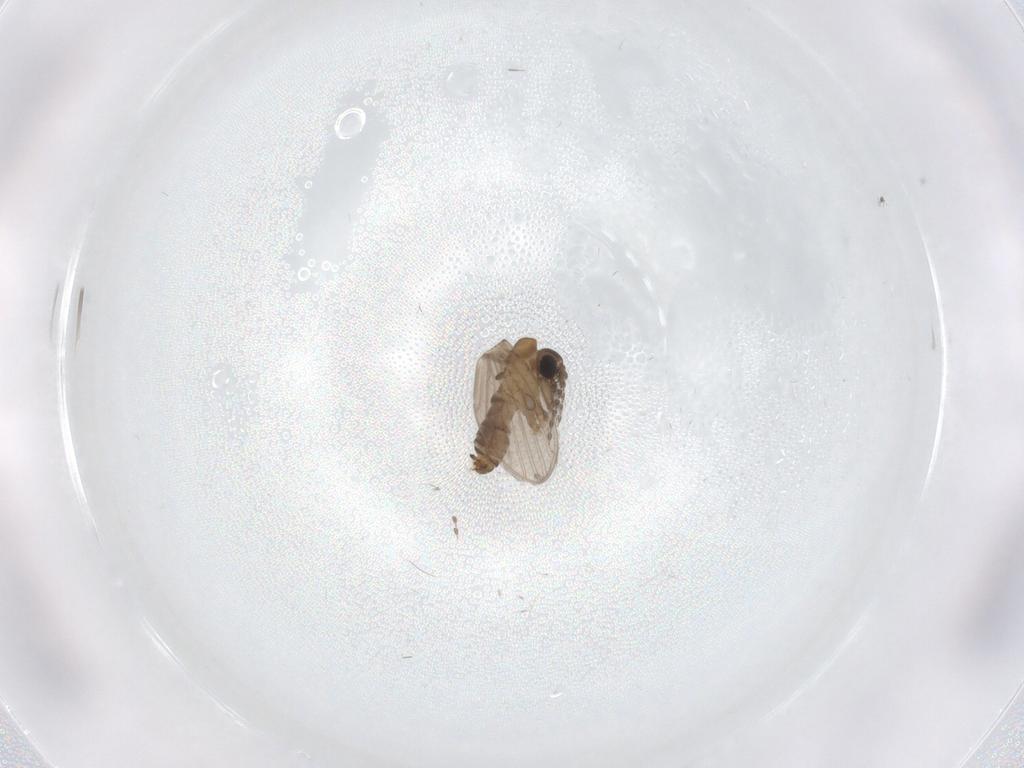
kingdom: Animalia
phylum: Arthropoda
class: Insecta
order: Diptera
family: Psychodidae
